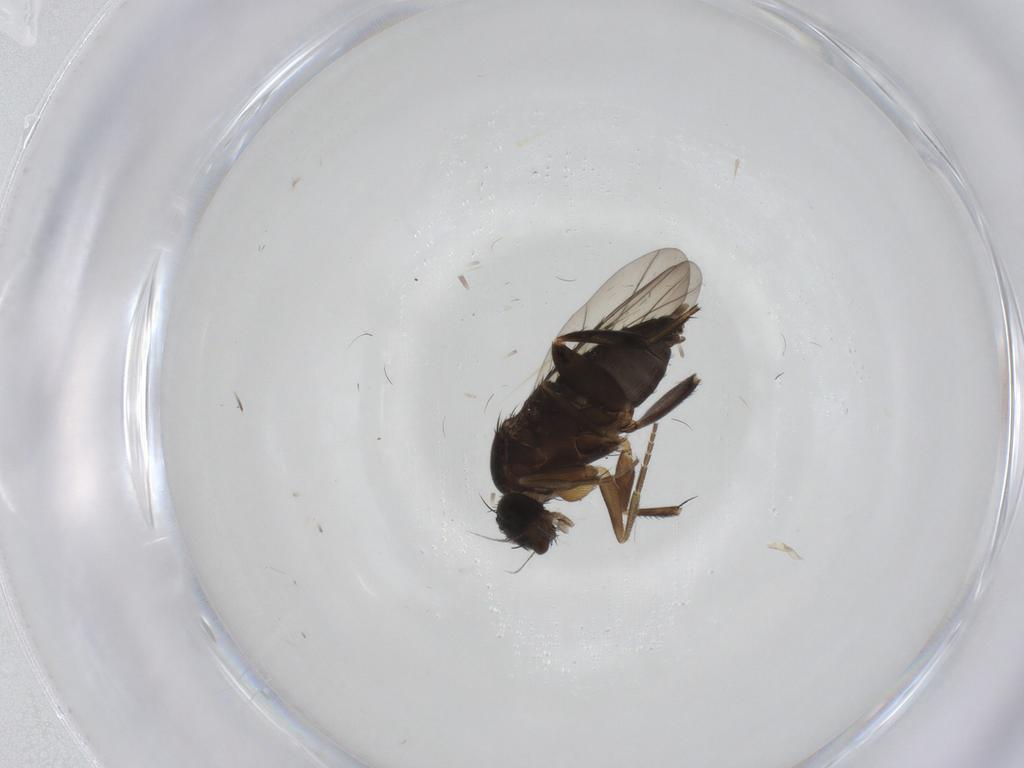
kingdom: Animalia
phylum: Arthropoda
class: Insecta
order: Diptera
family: Phoridae
